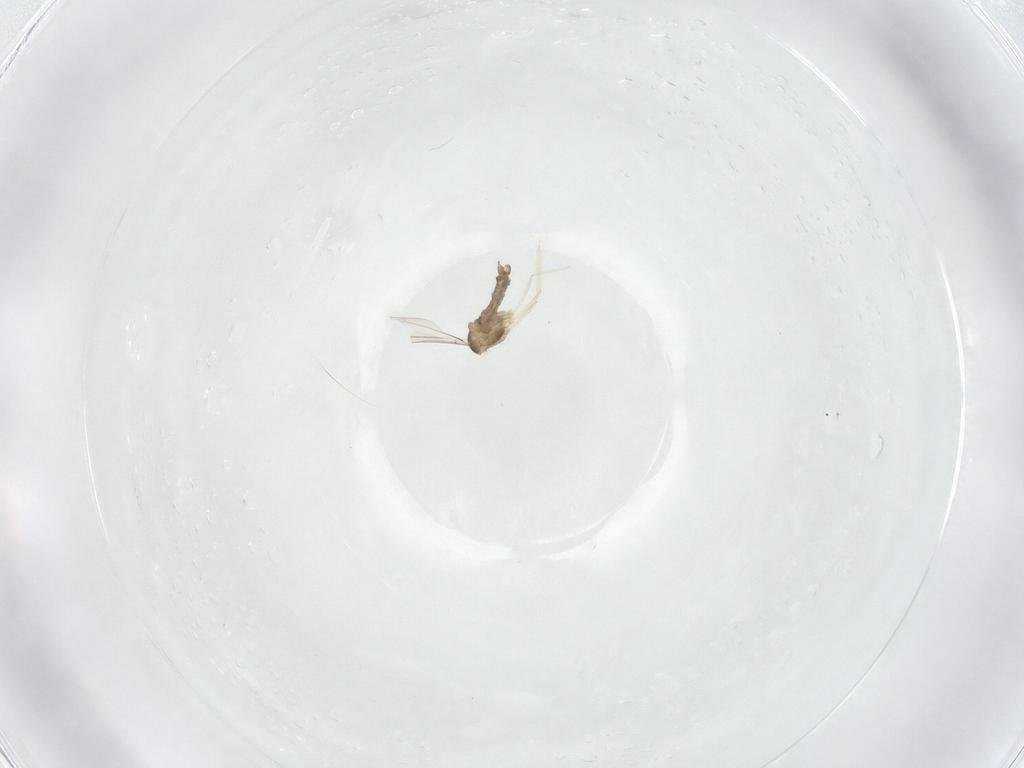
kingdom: Animalia
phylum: Arthropoda
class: Insecta
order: Diptera
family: Cecidomyiidae
